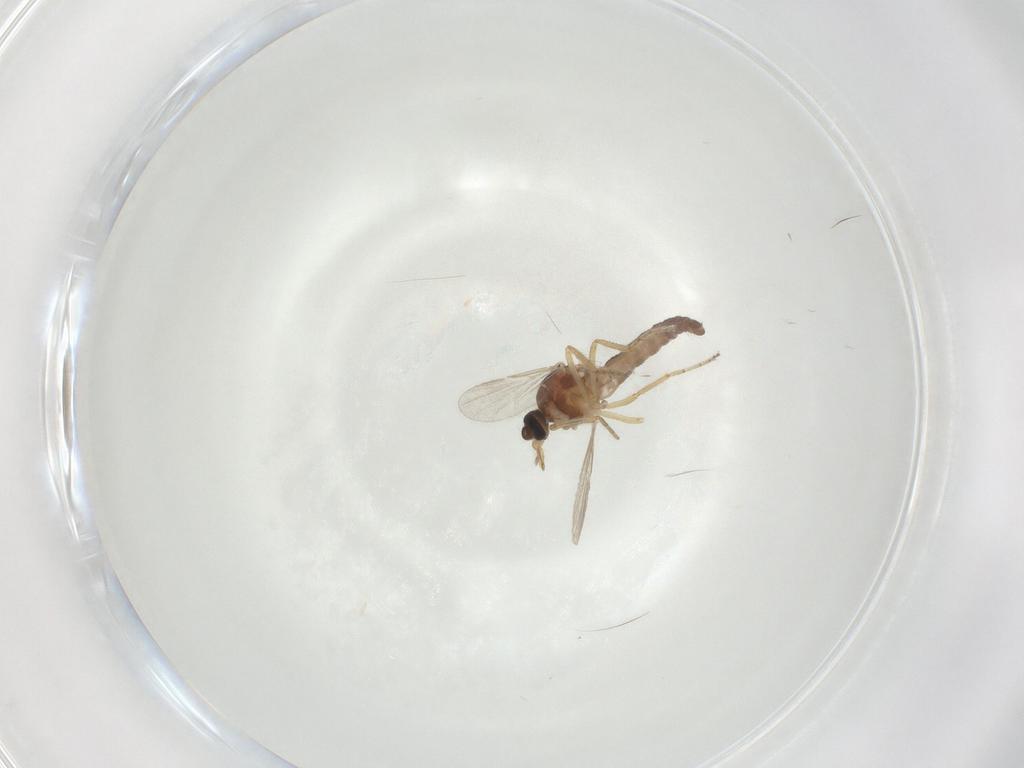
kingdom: Animalia
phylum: Arthropoda
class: Insecta
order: Diptera
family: Ceratopogonidae
